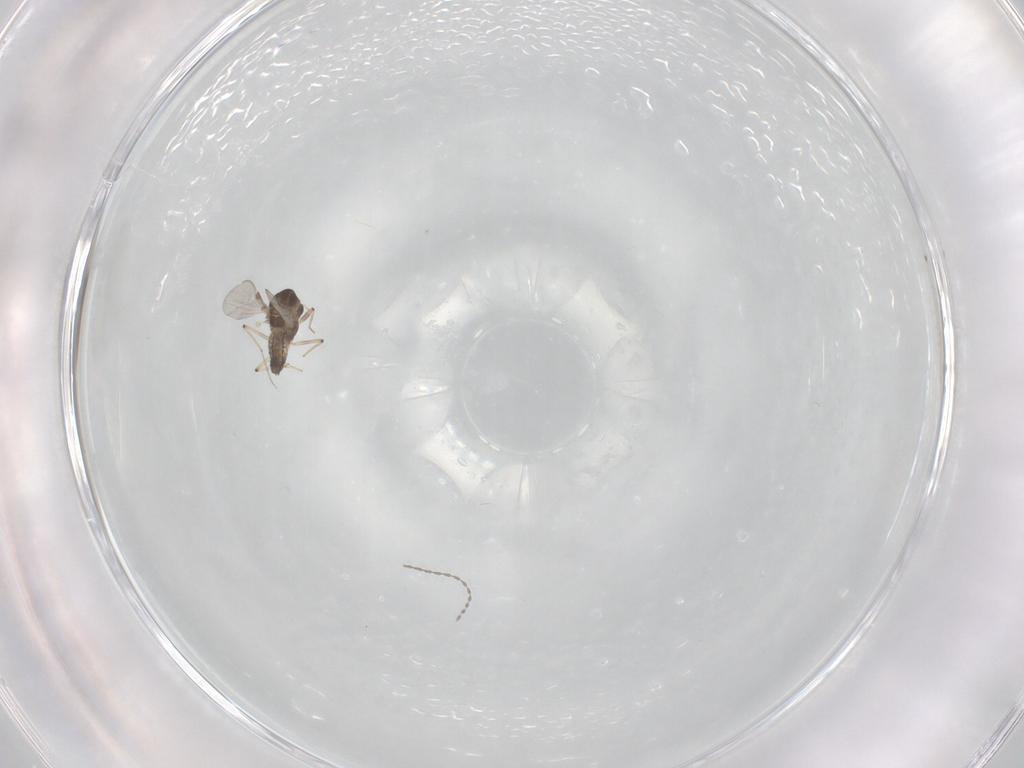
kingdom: Animalia
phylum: Arthropoda
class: Insecta
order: Diptera
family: Chironomidae
